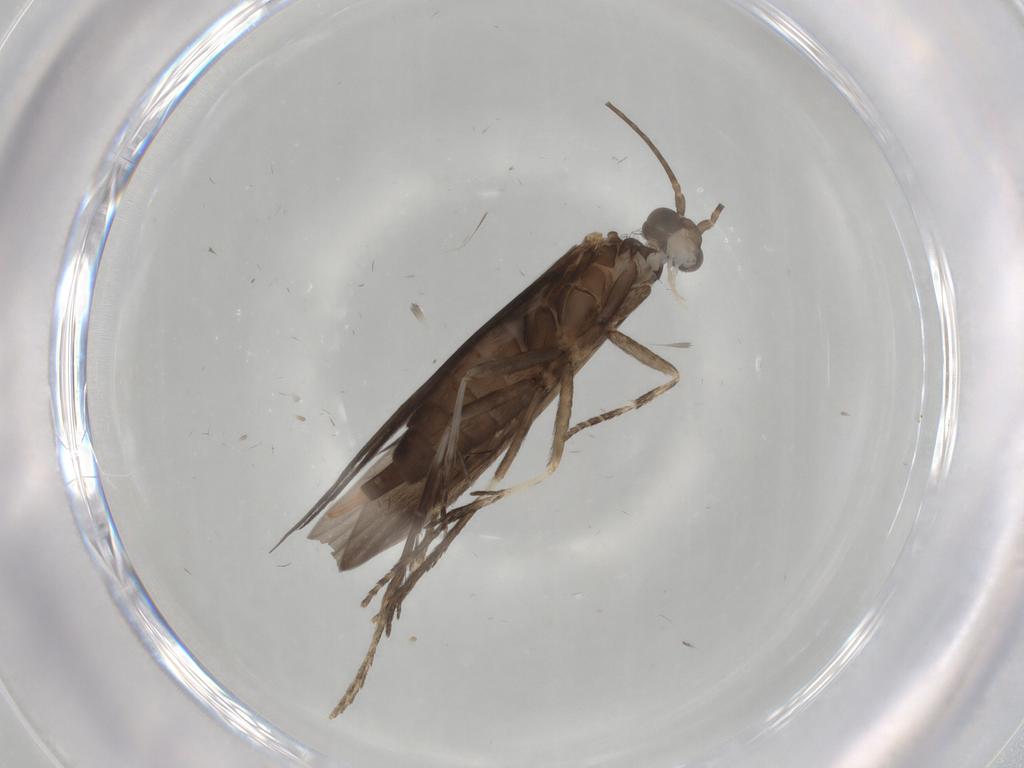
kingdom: Animalia
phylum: Arthropoda
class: Insecta
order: Trichoptera
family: Xiphocentronidae
